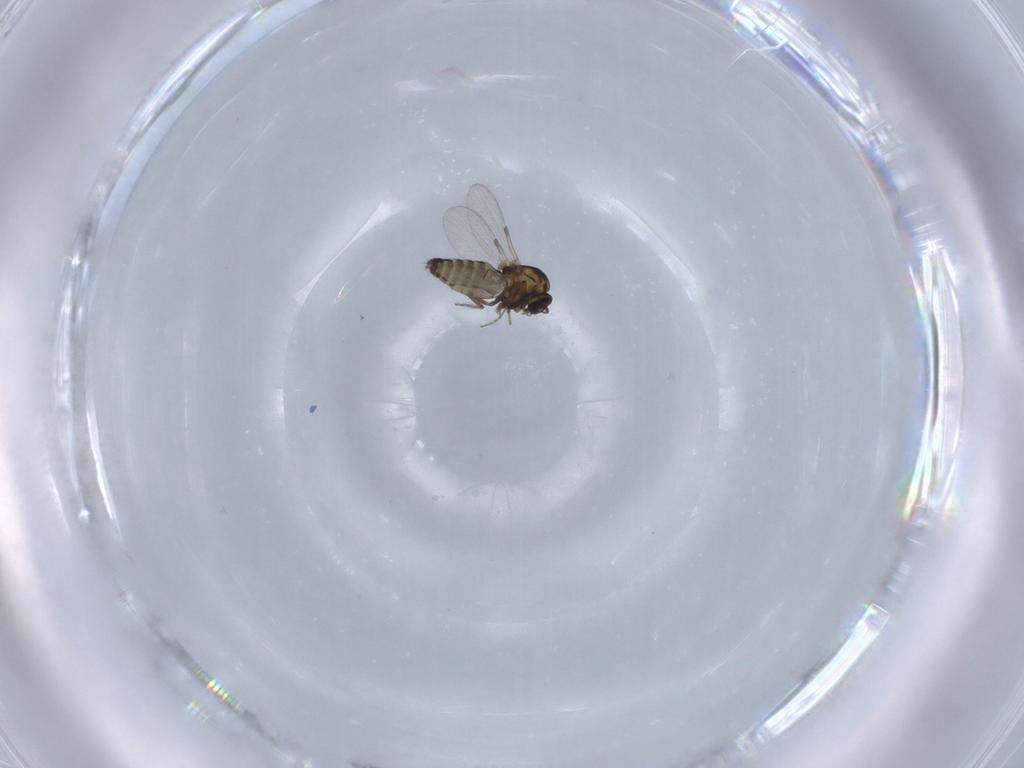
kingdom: Animalia
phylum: Arthropoda
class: Insecta
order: Diptera
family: Ceratopogonidae
